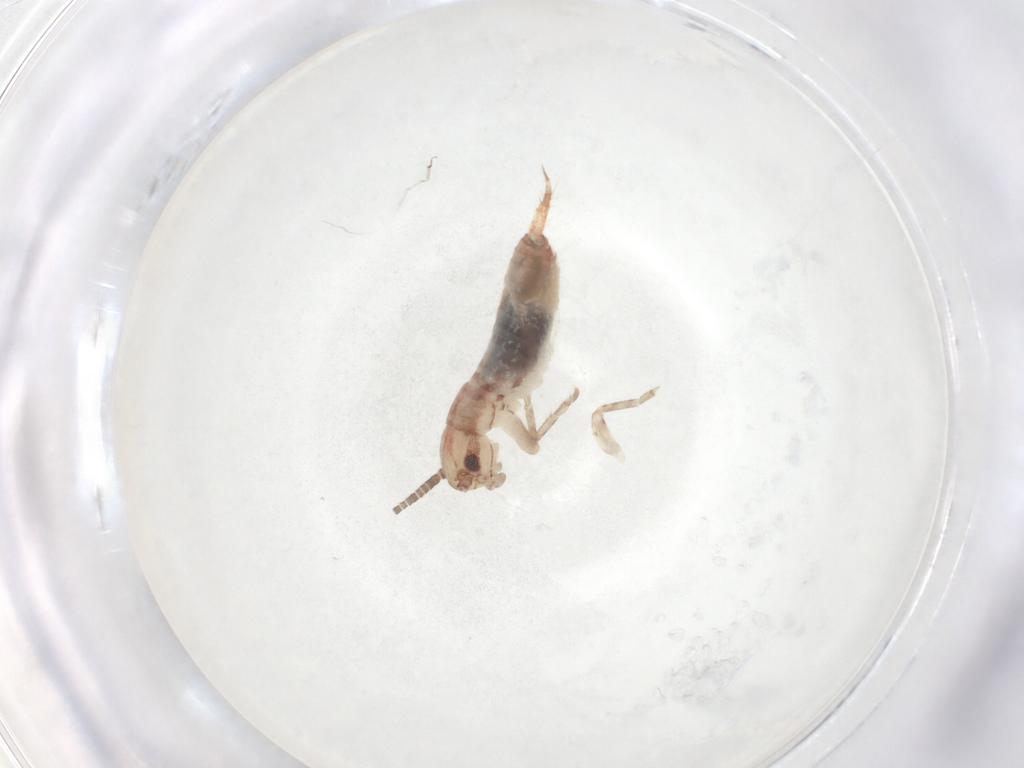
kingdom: Animalia
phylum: Arthropoda
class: Insecta
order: Orthoptera
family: Mogoplistidae
